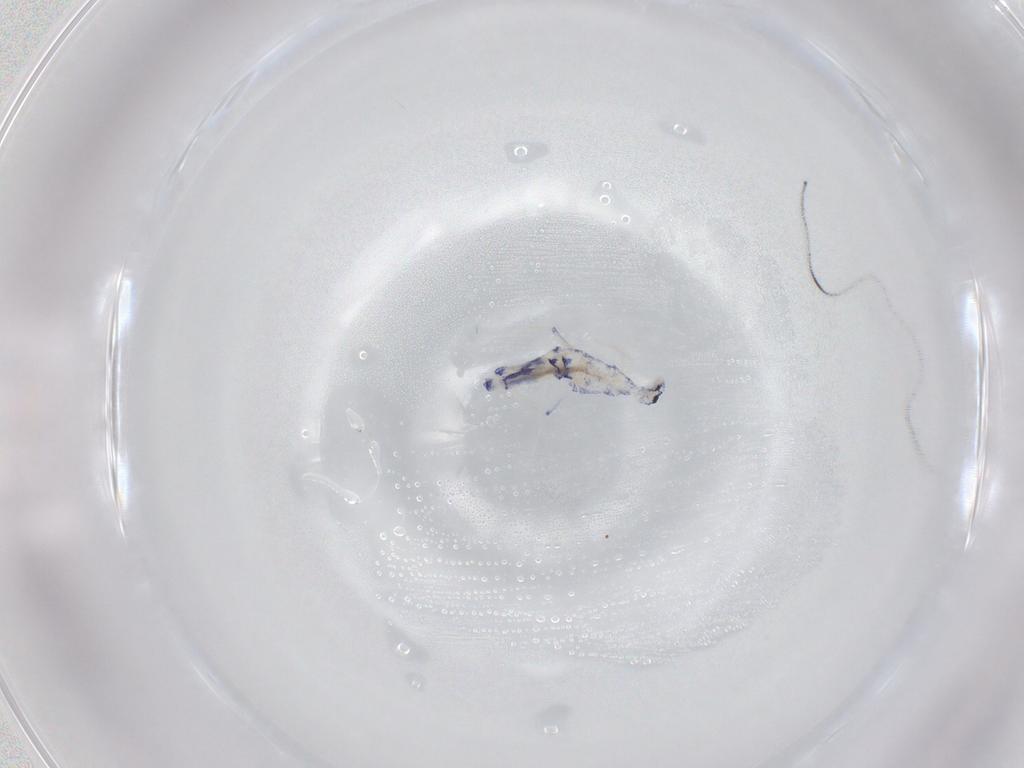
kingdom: Animalia
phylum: Arthropoda
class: Collembola
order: Entomobryomorpha
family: Entomobryidae
